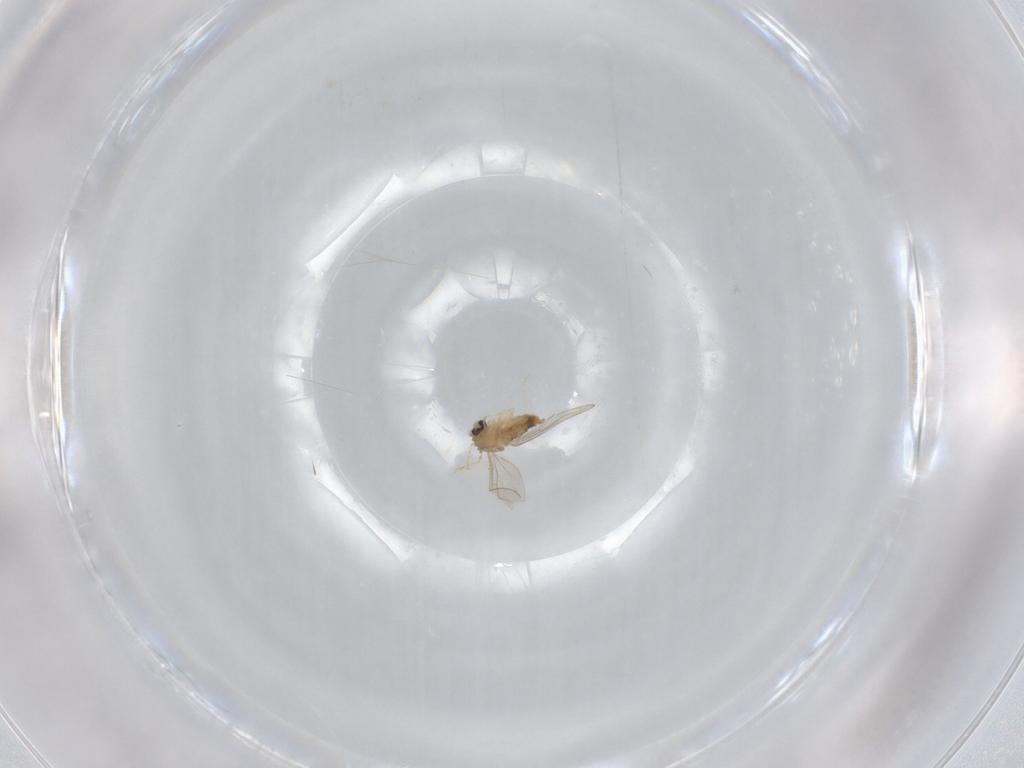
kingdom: Animalia
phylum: Arthropoda
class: Insecta
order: Diptera
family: Cecidomyiidae
